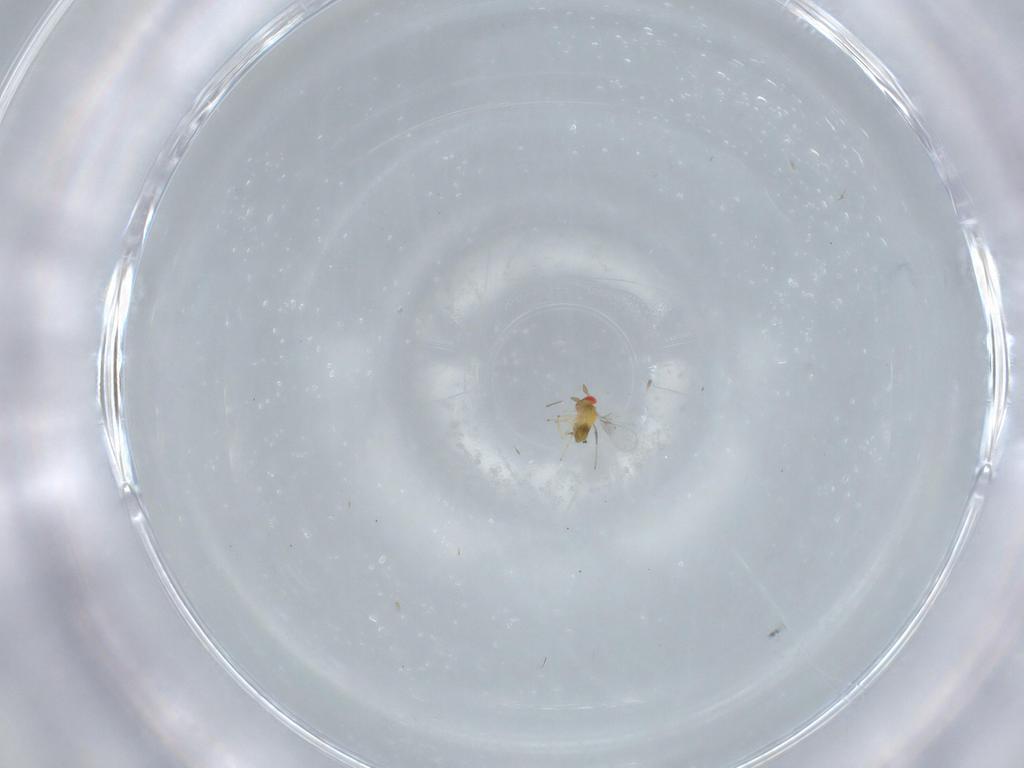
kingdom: Animalia
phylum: Arthropoda
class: Insecta
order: Hymenoptera
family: Trichogrammatidae
